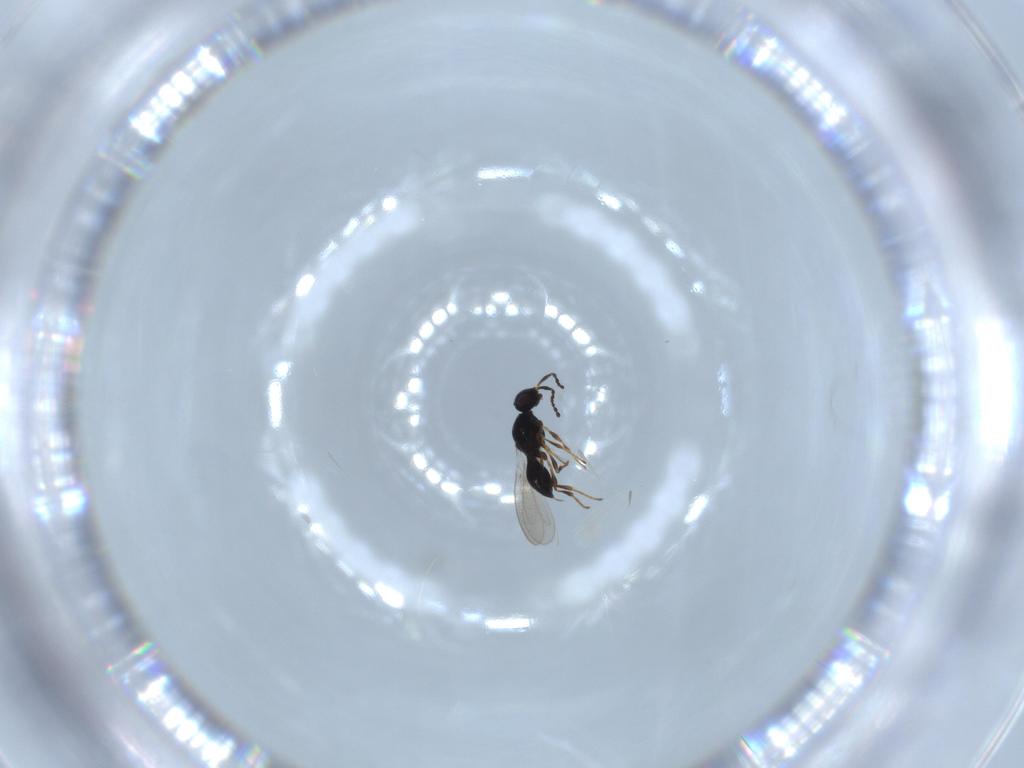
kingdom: Animalia
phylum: Arthropoda
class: Insecta
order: Diptera
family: Mythicomyiidae
